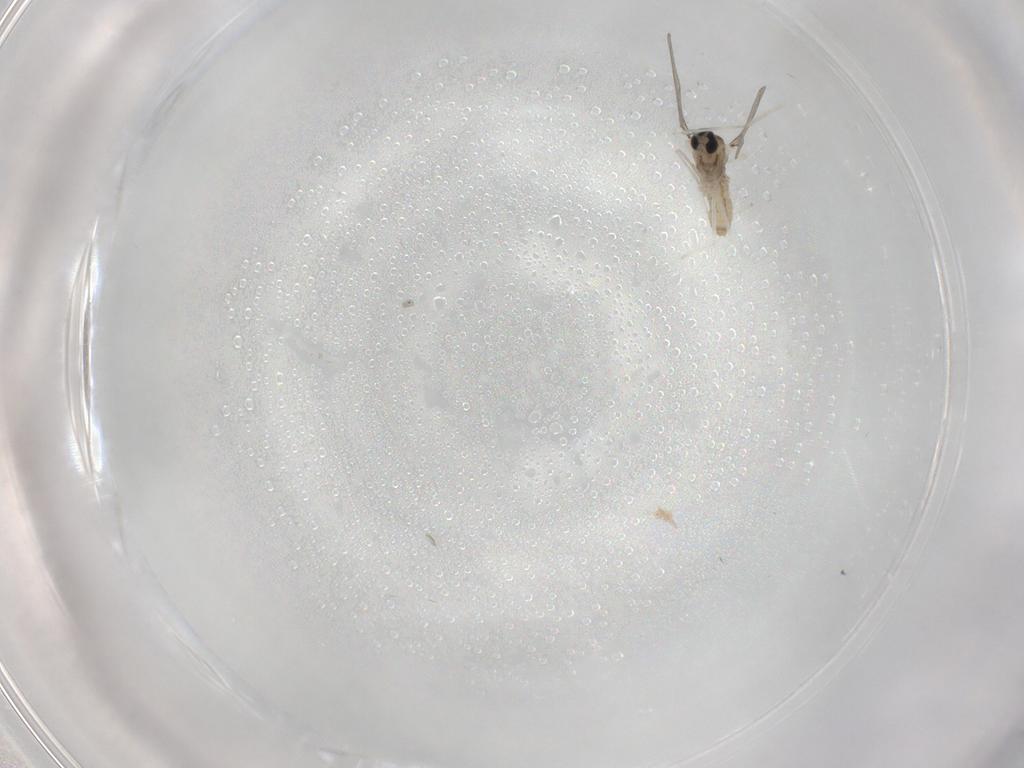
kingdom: Animalia
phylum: Arthropoda
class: Insecta
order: Diptera
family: Cecidomyiidae
